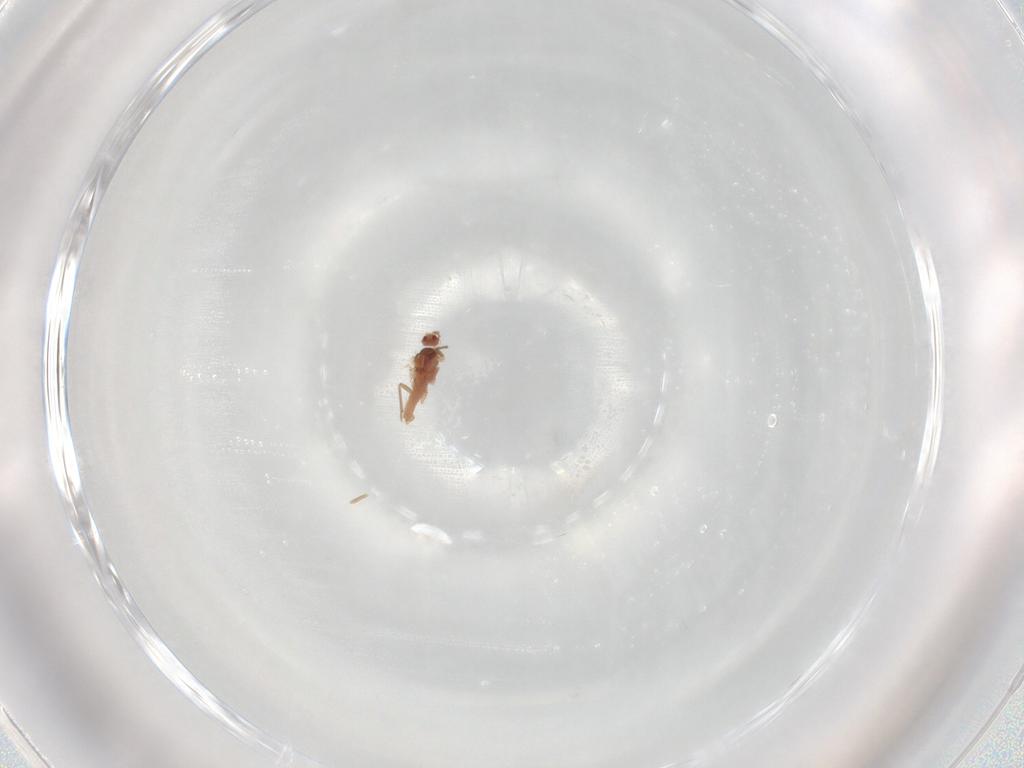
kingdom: Animalia
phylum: Arthropoda
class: Insecta
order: Diptera
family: Glossinidae
